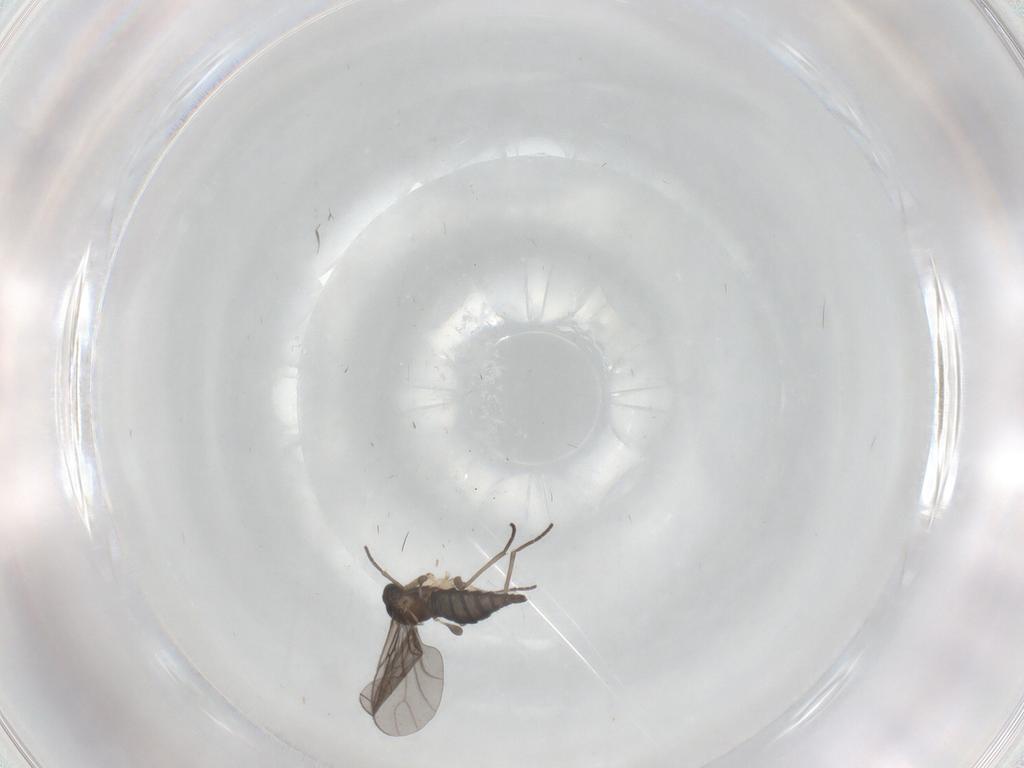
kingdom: Animalia
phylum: Arthropoda
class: Insecta
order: Diptera
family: Sciaridae
